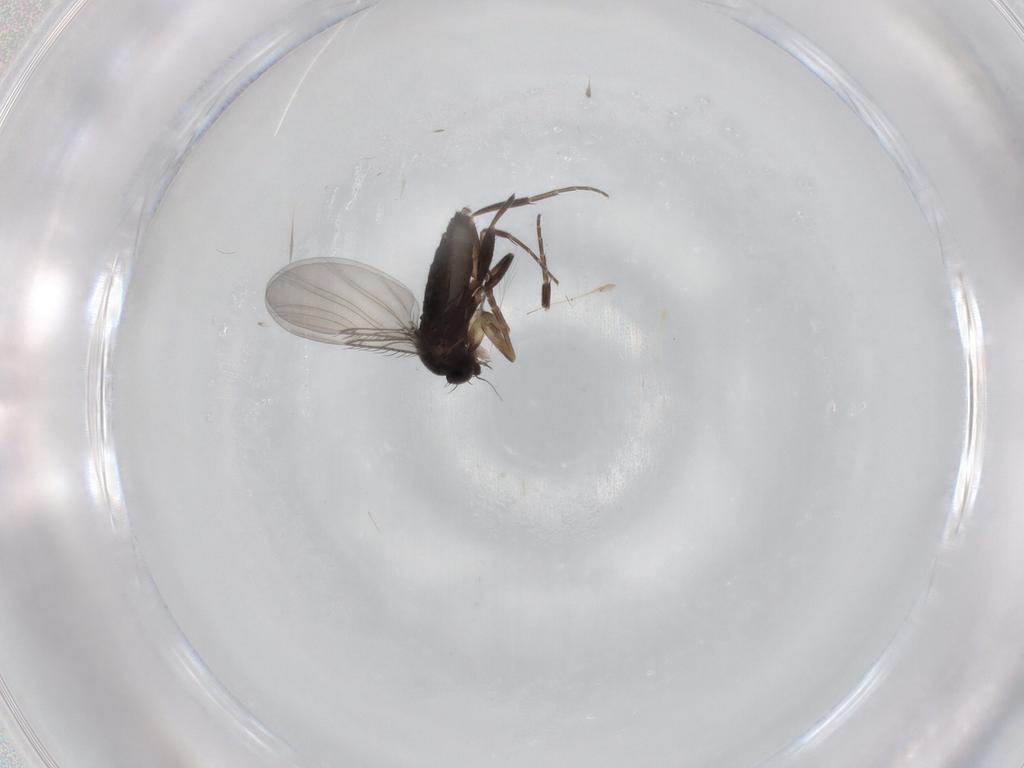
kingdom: Animalia
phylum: Arthropoda
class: Insecta
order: Diptera
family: Phoridae
